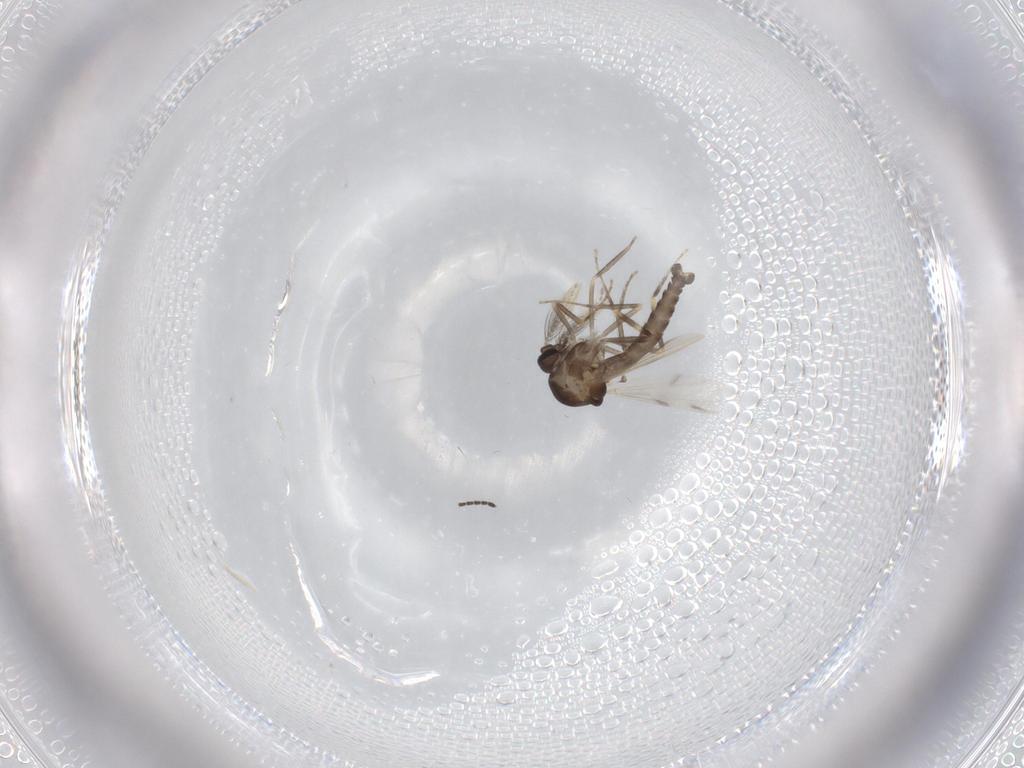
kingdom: Animalia
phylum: Arthropoda
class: Insecta
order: Diptera
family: Ceratopogonidae
